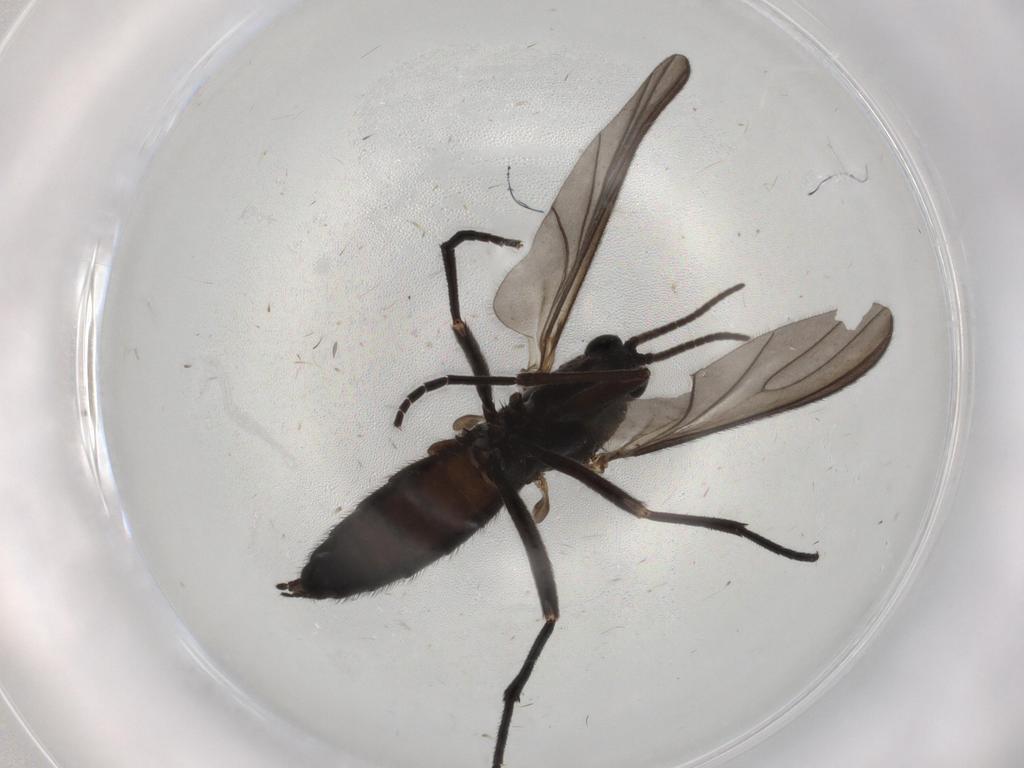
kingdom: Animalia
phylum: Arthropoda
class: Insecta
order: Diptera
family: Sciaridae
